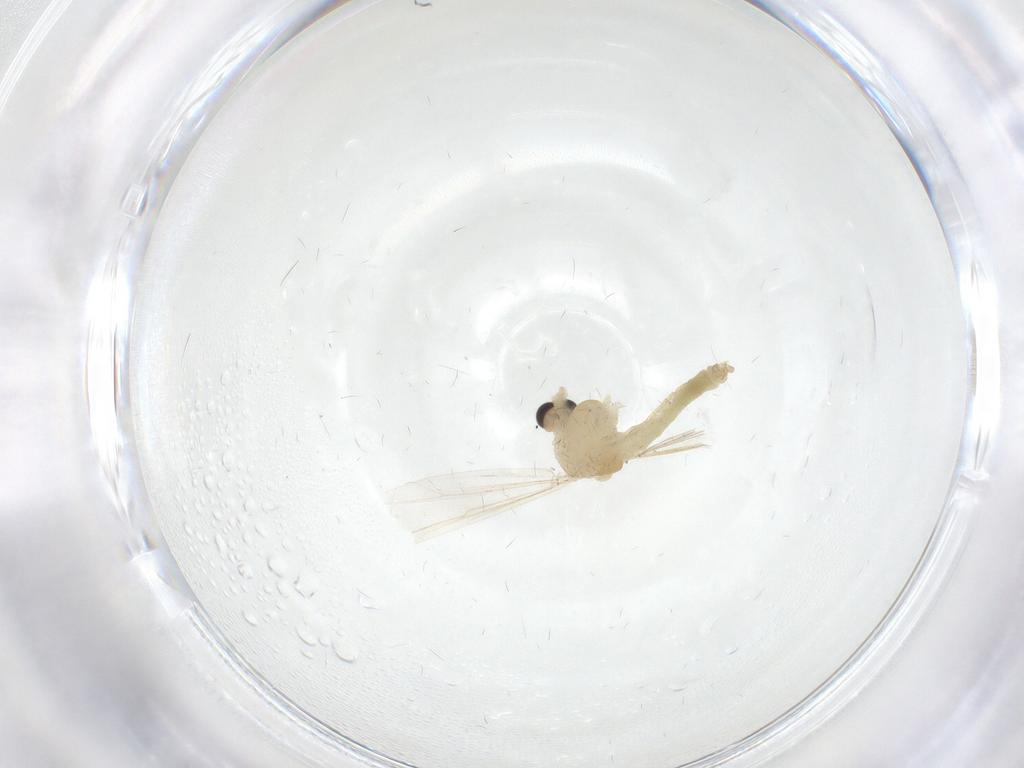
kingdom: Animalia
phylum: Arthropoda
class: Insecta
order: Diptera
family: Chironomidae
